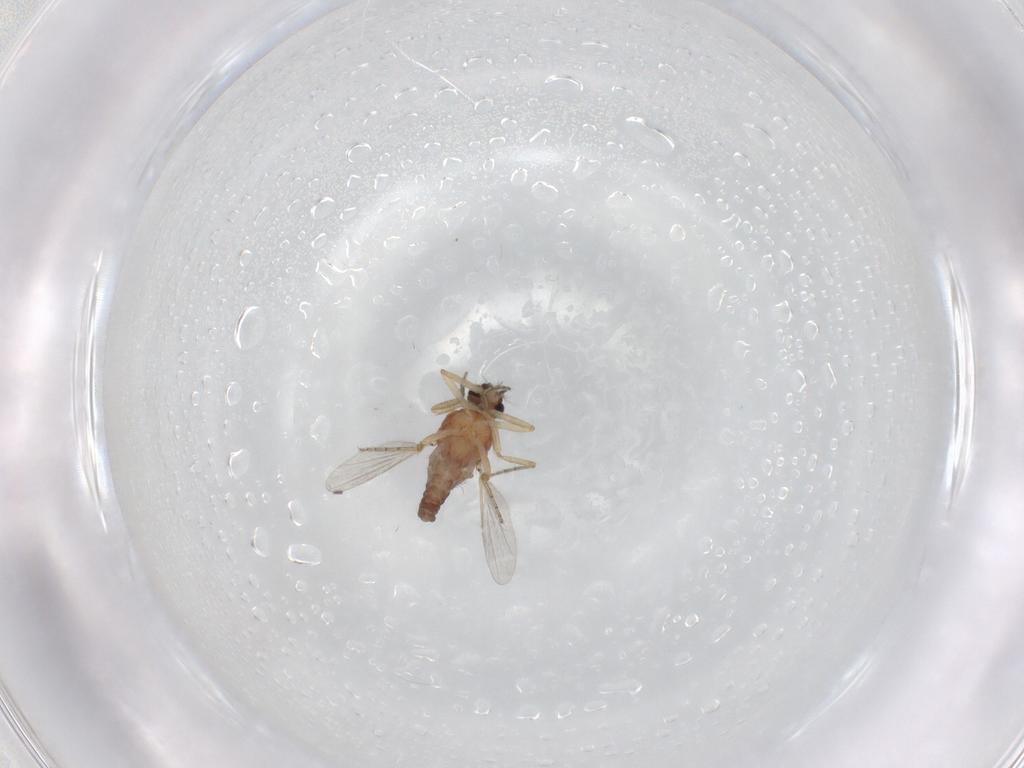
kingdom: Animalia
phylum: Arthropoda
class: Insecta
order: Diptera
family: Ceratopogonidae
